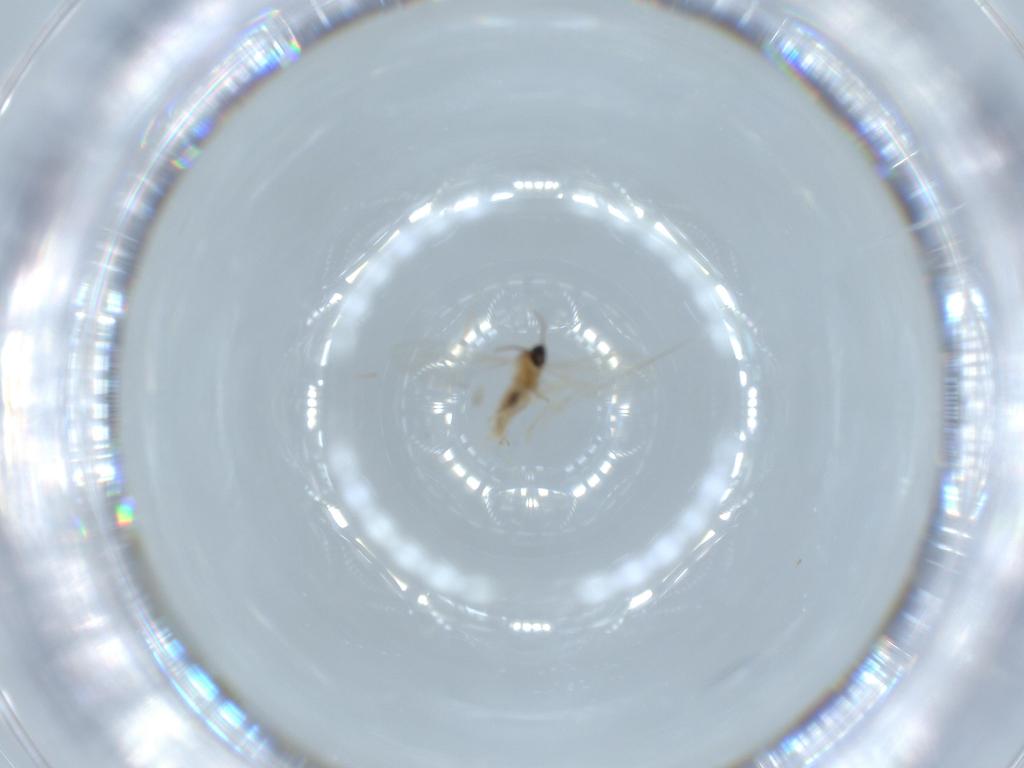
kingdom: Animalia
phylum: Arthropoda
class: Insecta
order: Diptera
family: Cecidomyiidae
